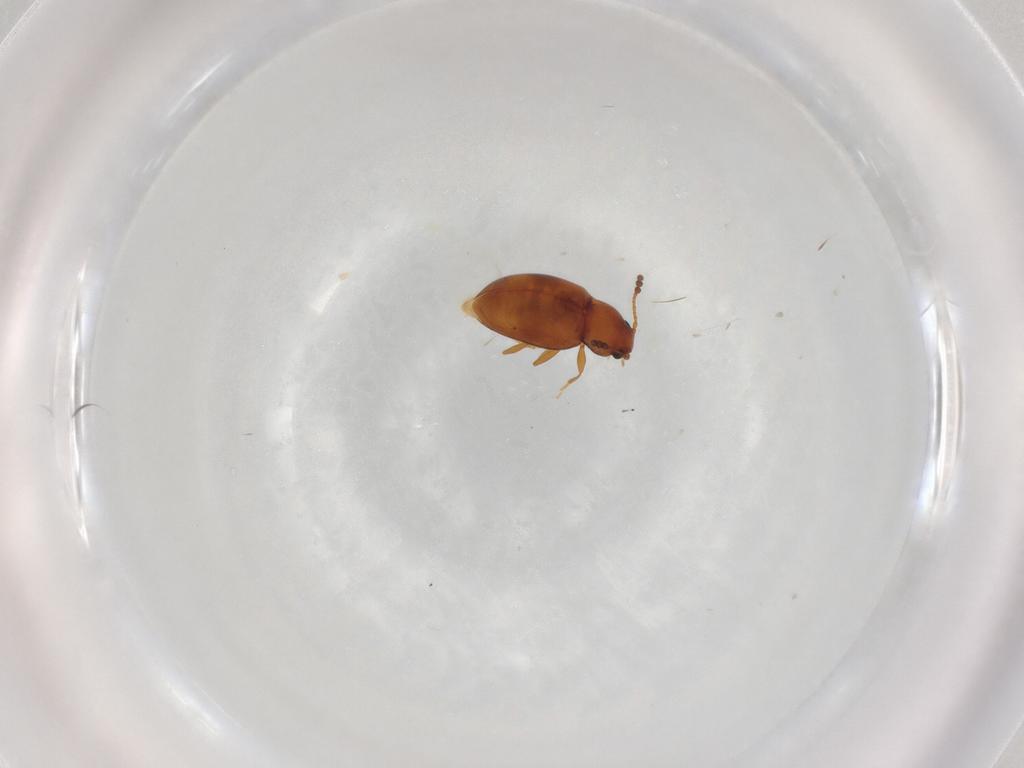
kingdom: Animalia
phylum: Arthropoda
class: Insecta
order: Coleoptera
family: Erotylidae
